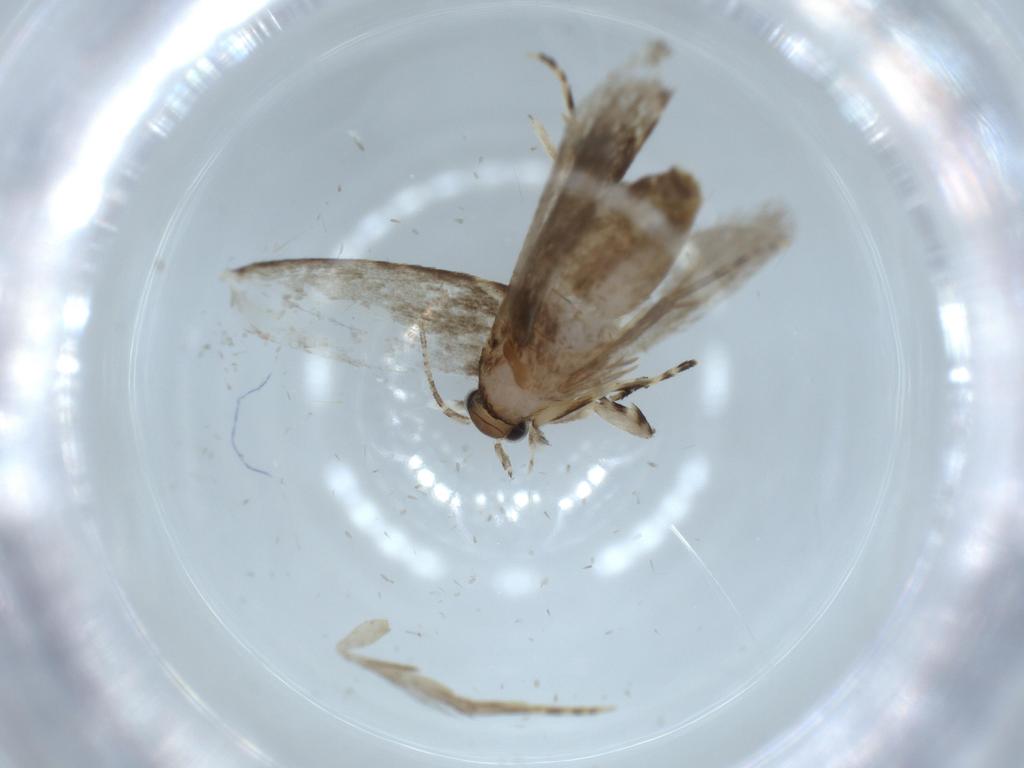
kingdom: Animalia
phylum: Arthropoda
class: Insecta
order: Lepidoptera
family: Tineidae
